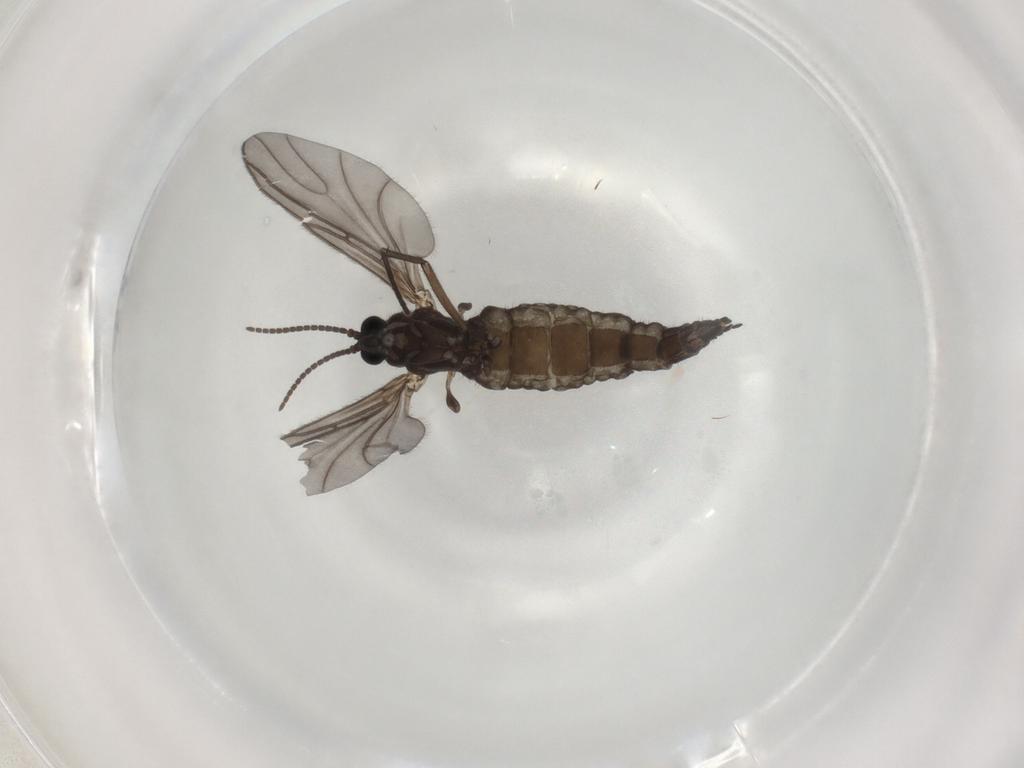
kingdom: Animalia
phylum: Arthropoda
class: Insecta
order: Diptera
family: Sciaridae
